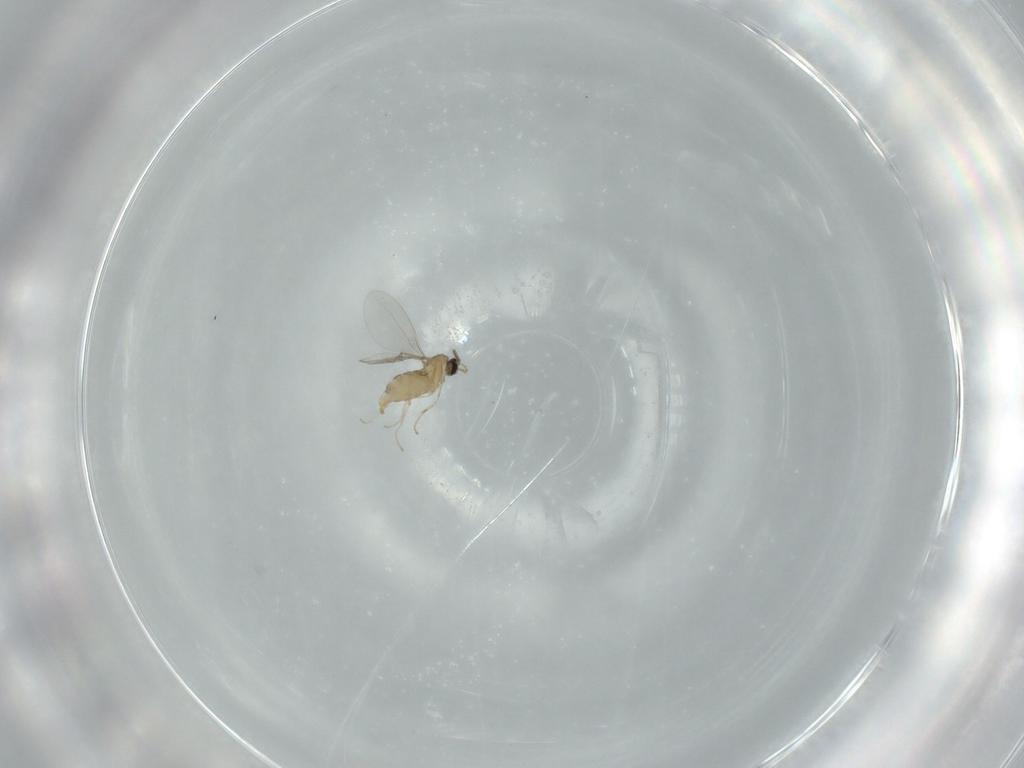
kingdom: Animalia
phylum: Arthropoda
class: Insecta
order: Diptera
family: Cecidomyiidae
